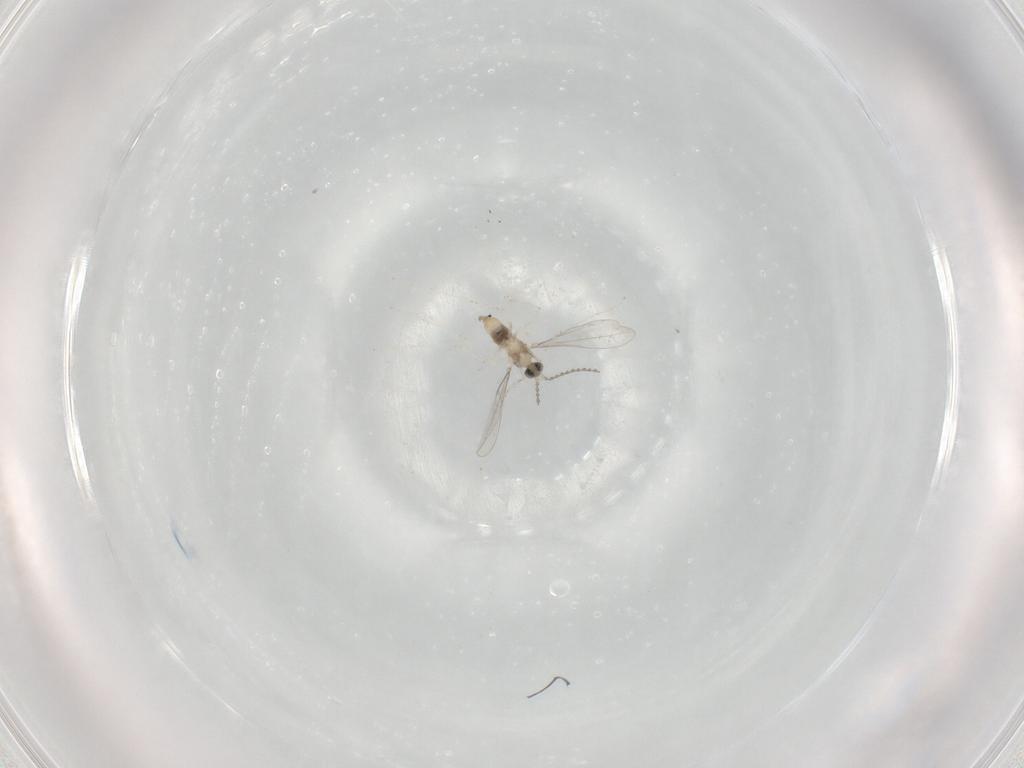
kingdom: Animalia
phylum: Arthropoda
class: Insecta
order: Diptera
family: Cecidomyiidae
